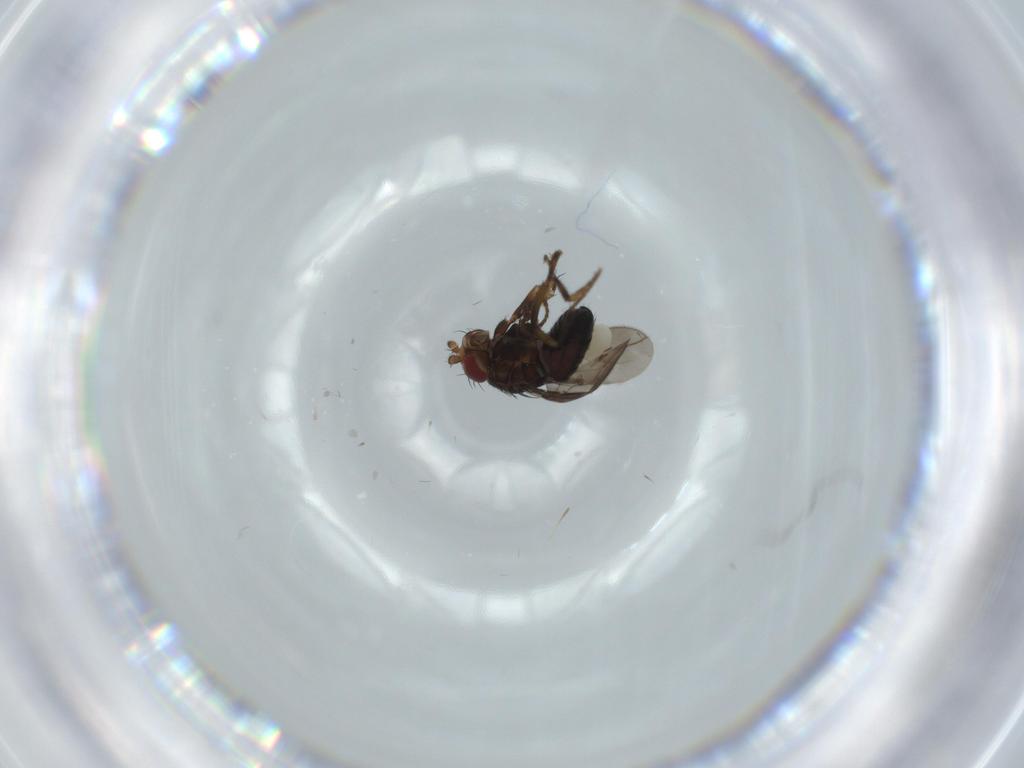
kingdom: Animalia
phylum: Arthropoda
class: Insecta
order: Diptera
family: Sphaeroceridae
